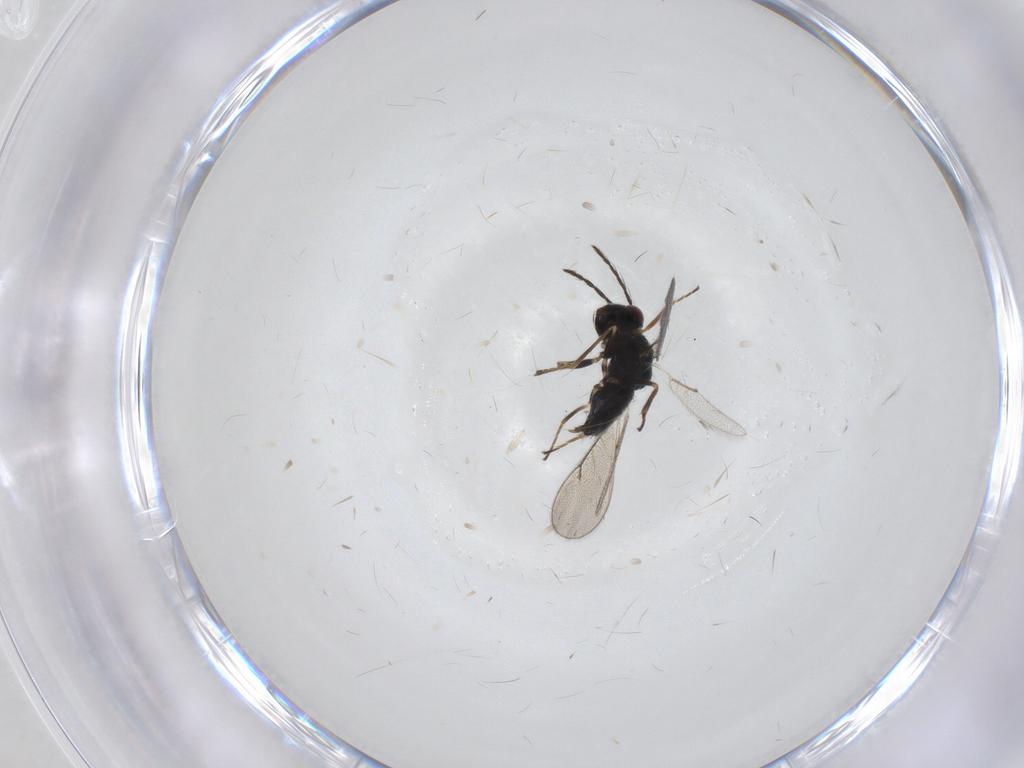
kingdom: Animalia
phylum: Arthropoda
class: Insecta
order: Hymenoptera
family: Eulophidae
